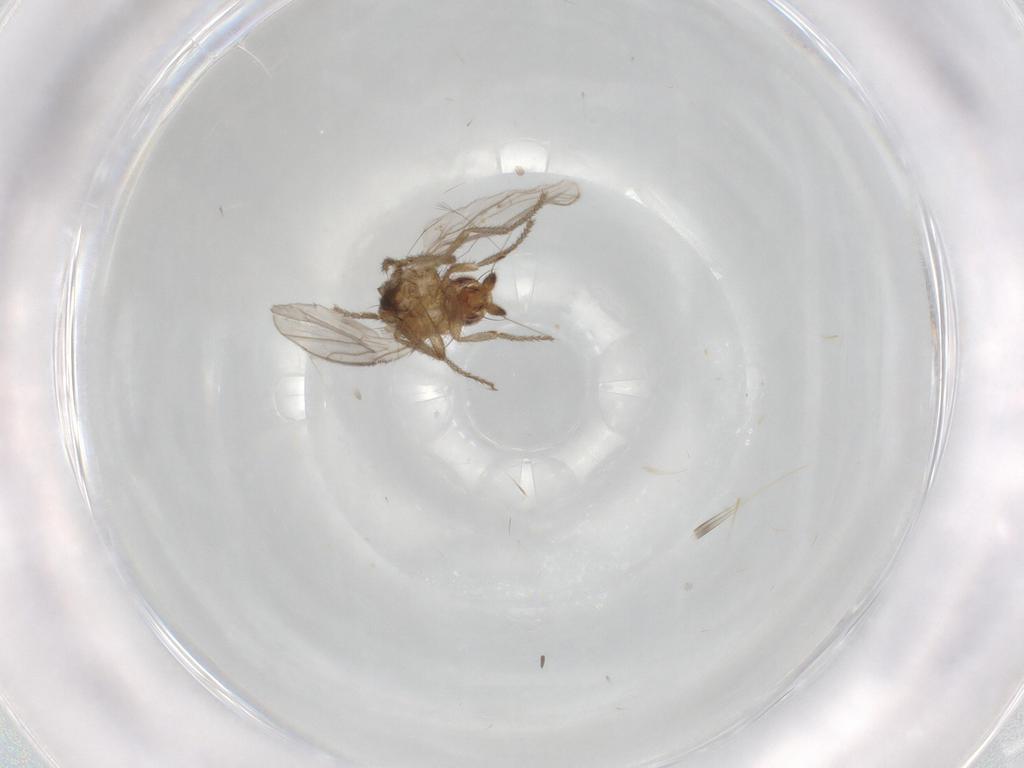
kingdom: Animalia
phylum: Arthropoda
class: Insecta
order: Diptera
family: Sphaeroceridae
